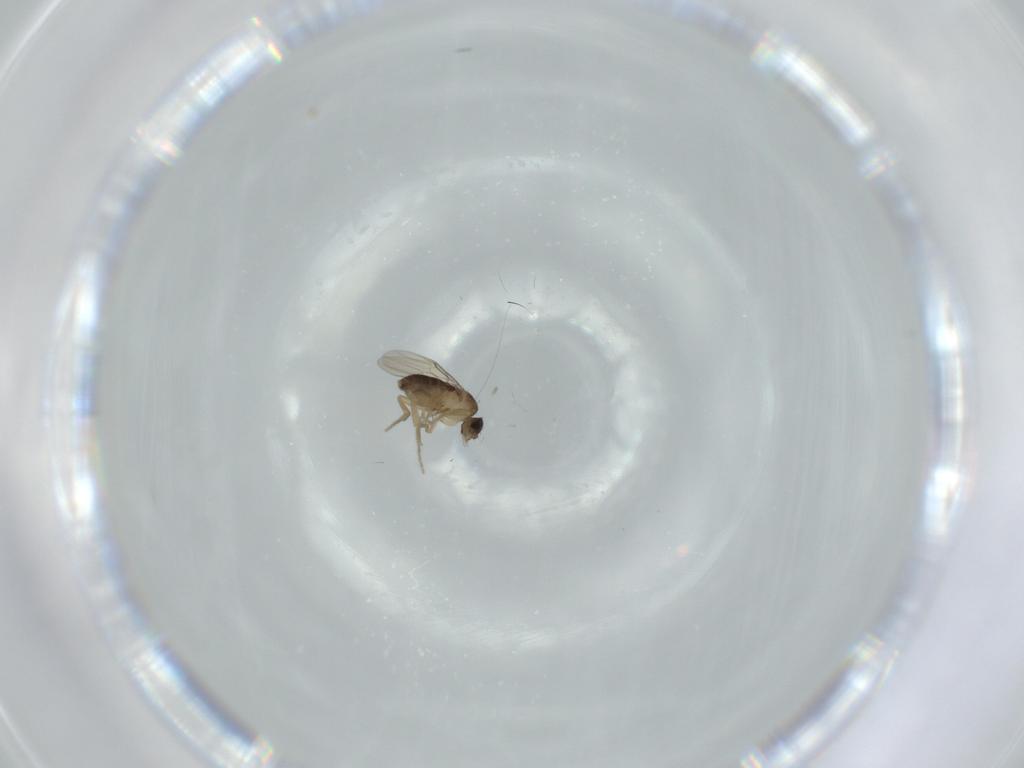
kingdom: Animalia
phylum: Arthropoda
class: Insecta
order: Diptera
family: Phoridae
